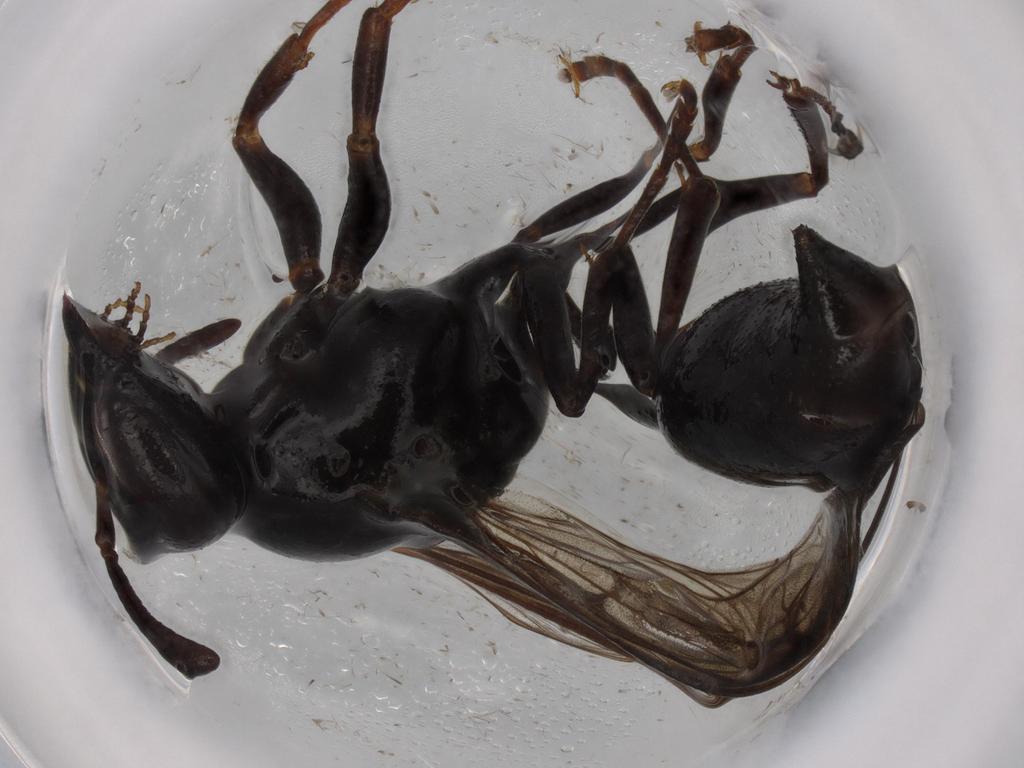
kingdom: Animalia
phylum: Arthropoda
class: Insecta
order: Hymenoptera
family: Vespidae
